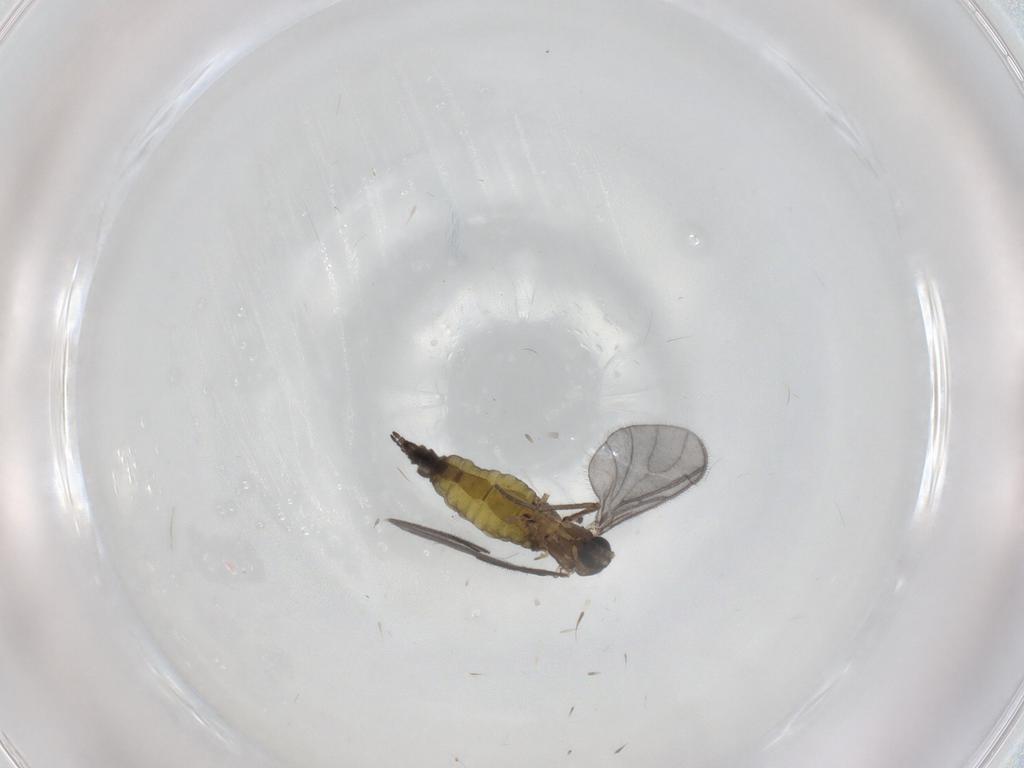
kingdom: Animalia
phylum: Arthropoda
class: Insecta
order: Diptera
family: Sciaridae
